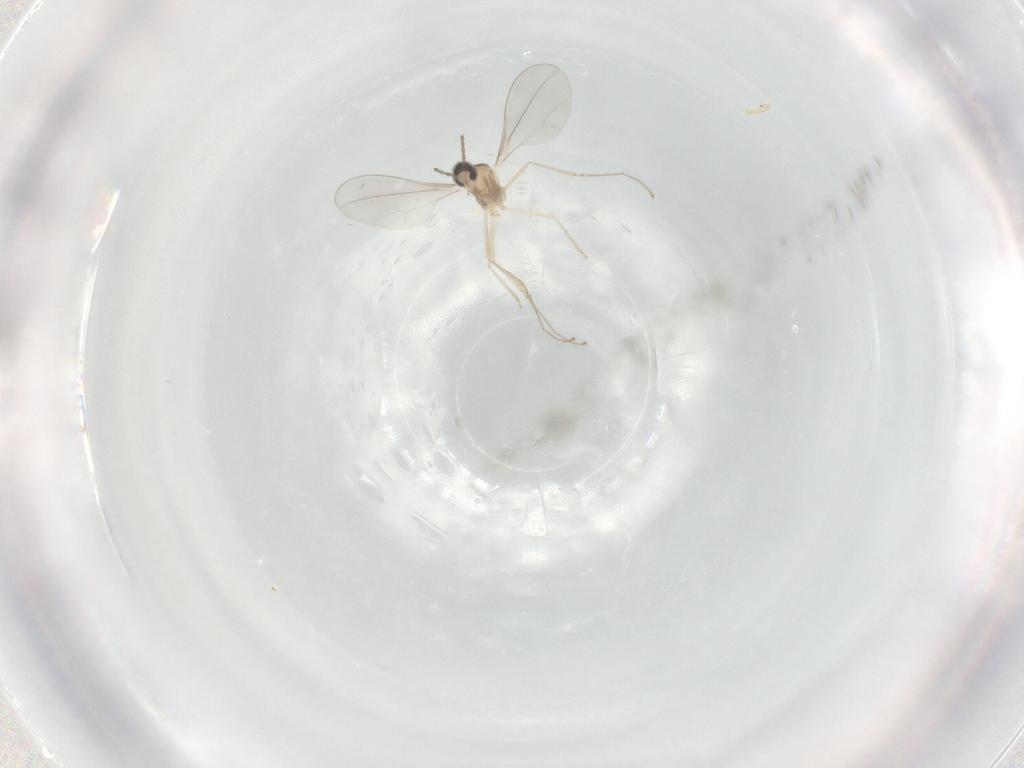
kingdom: Animalia
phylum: Arthropoda
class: Insecta
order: Diptera
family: Cecidomyiidae
